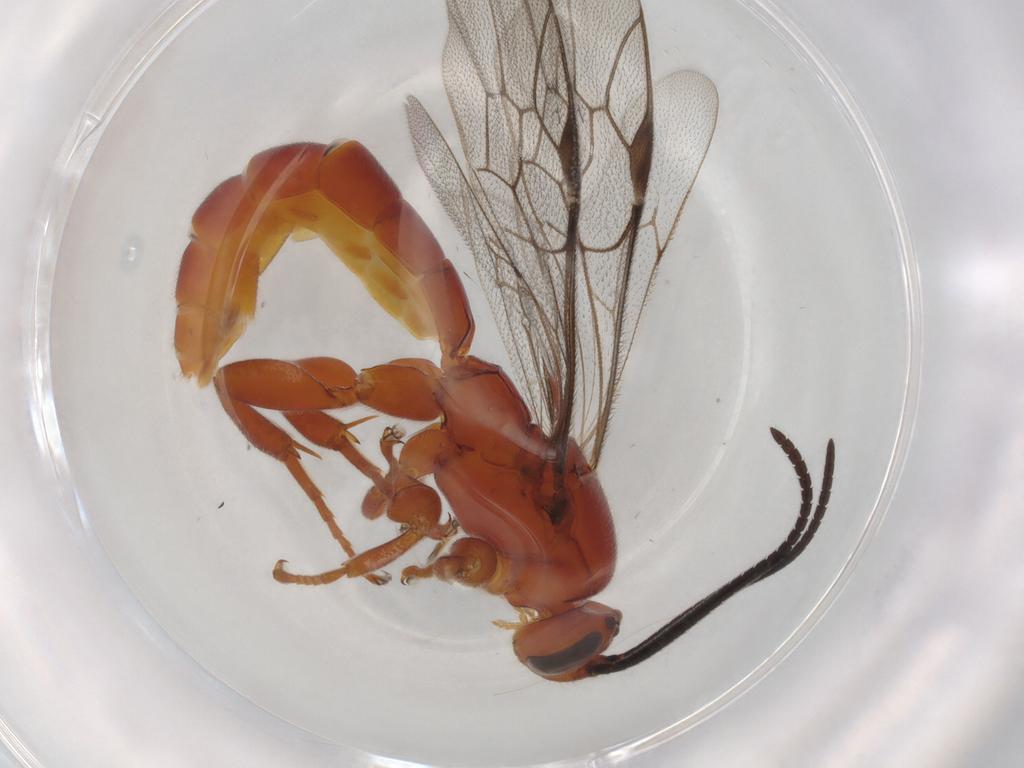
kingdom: Animalia
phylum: Arthropoda
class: Insecta
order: Hymenoptera
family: Ichneumonidae
